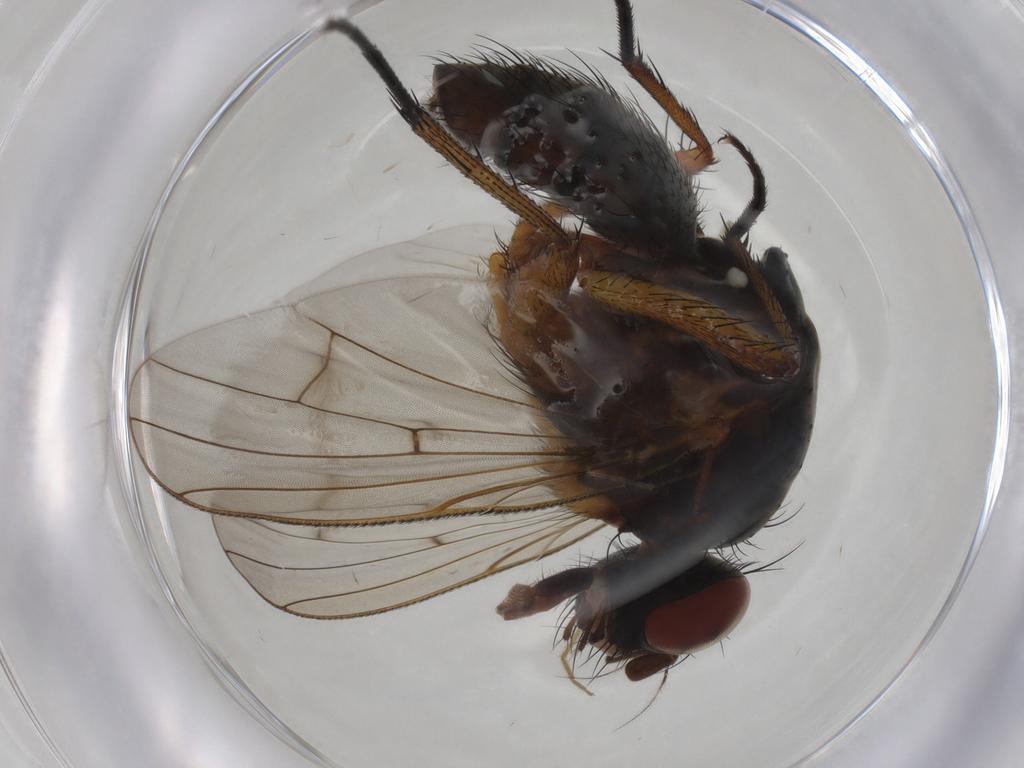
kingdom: Animalia
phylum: Arthropoda
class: Insecta
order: Diptera
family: Anthomyiidae
